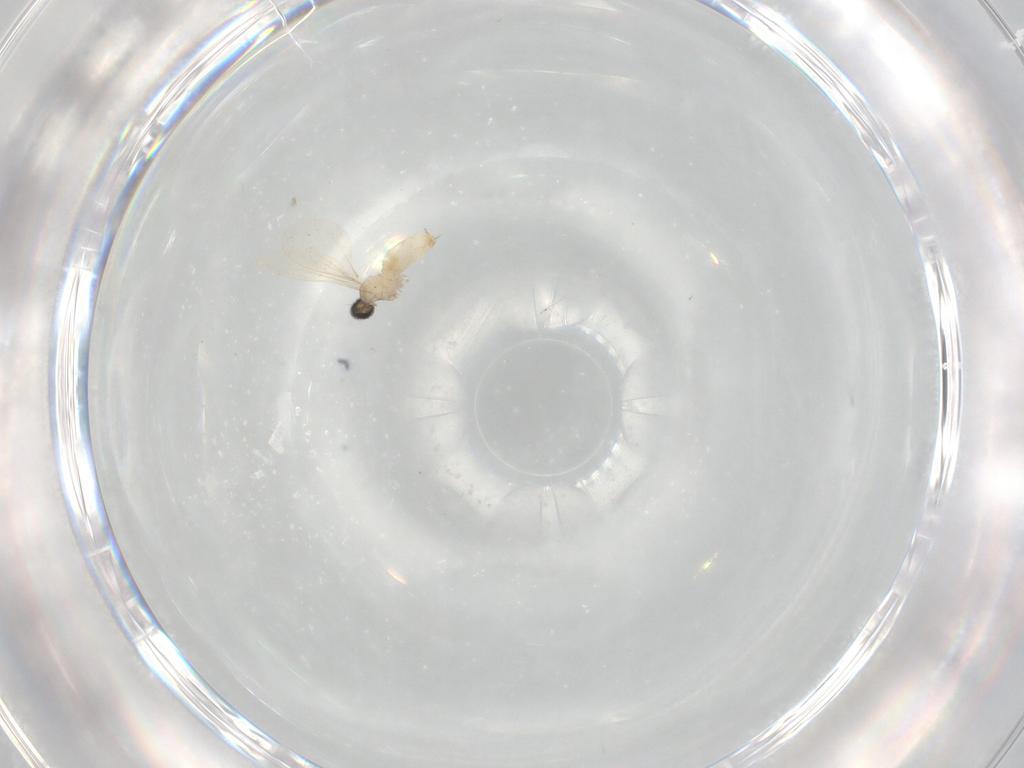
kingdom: Animalia
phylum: Arthropoda
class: Insecta
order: Diptera
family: Cecidomyiidae
